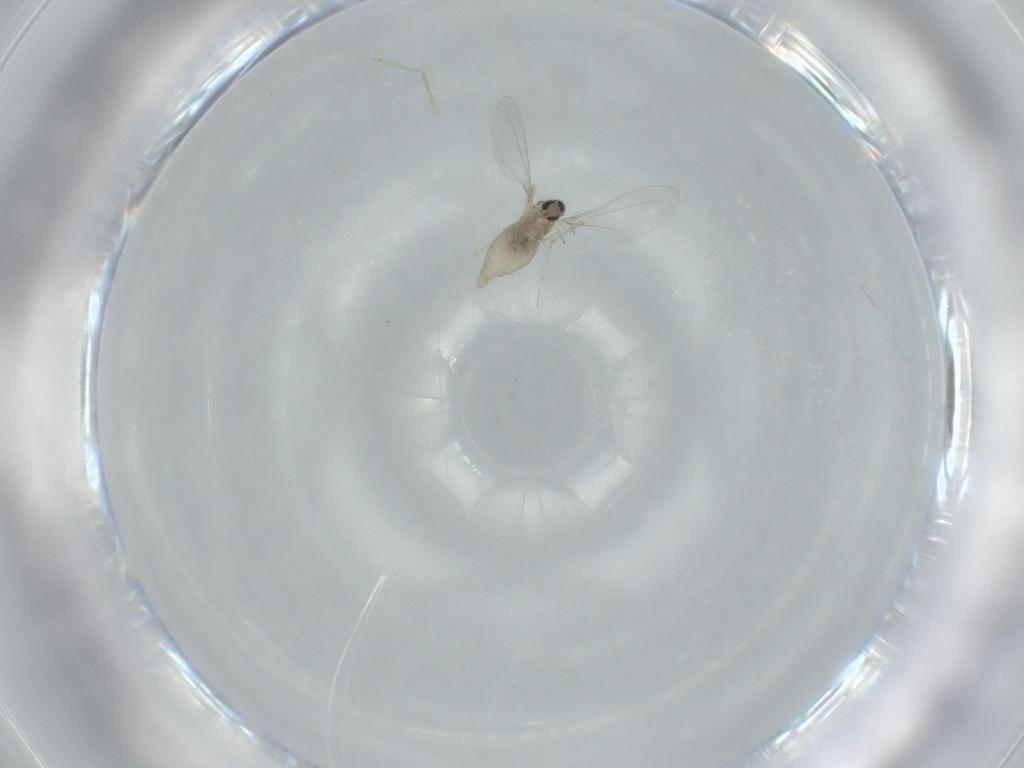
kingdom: Animalia
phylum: Arthropoda
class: Insecta
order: Diptera
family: Cecidomyiidae
